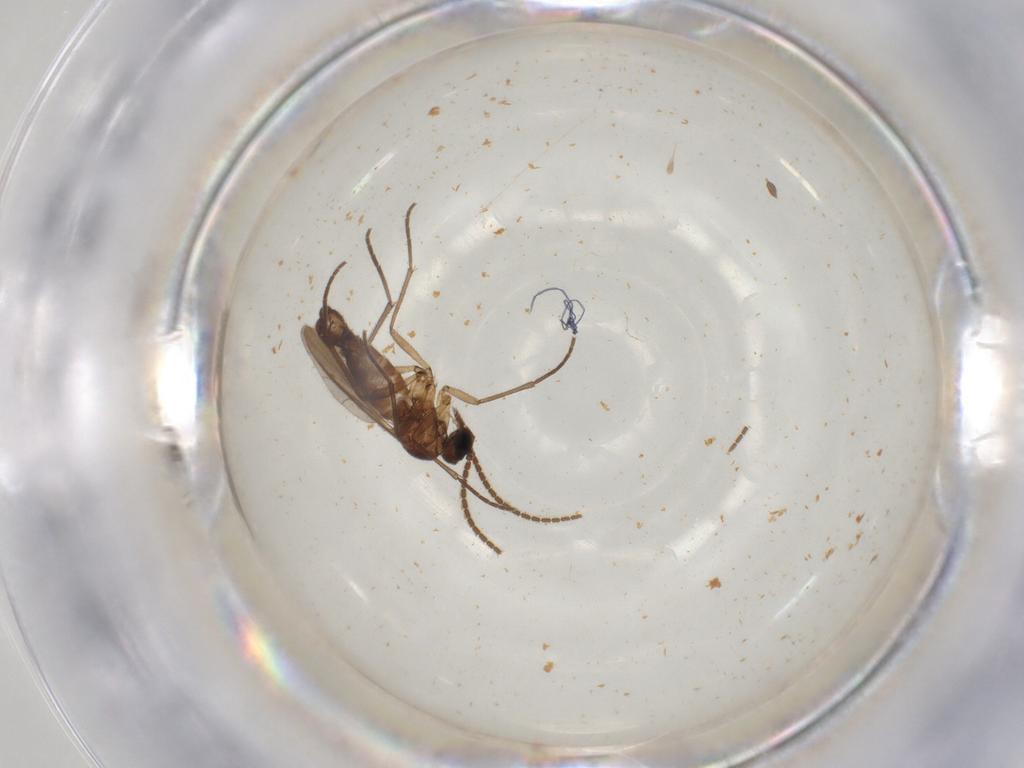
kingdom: Animalia
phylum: Arthropoda
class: Insecta
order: Diptera
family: Sciaridae
